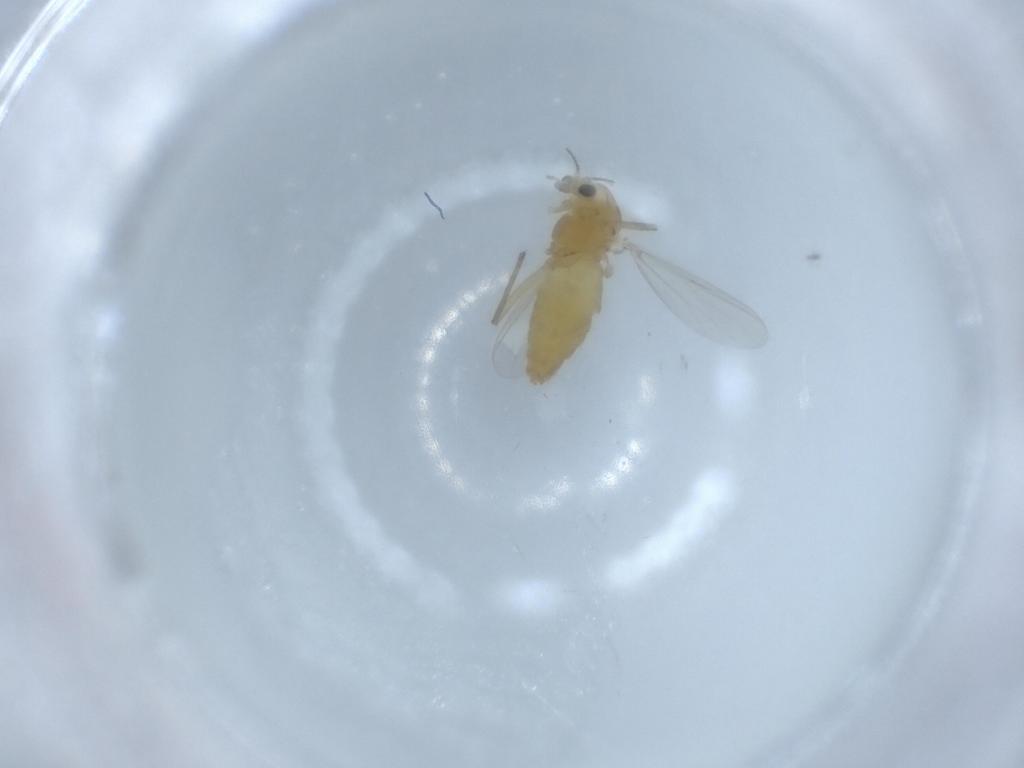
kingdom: Animalia
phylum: Arthropoda
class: Insecta
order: Diptera
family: Chironomidae
